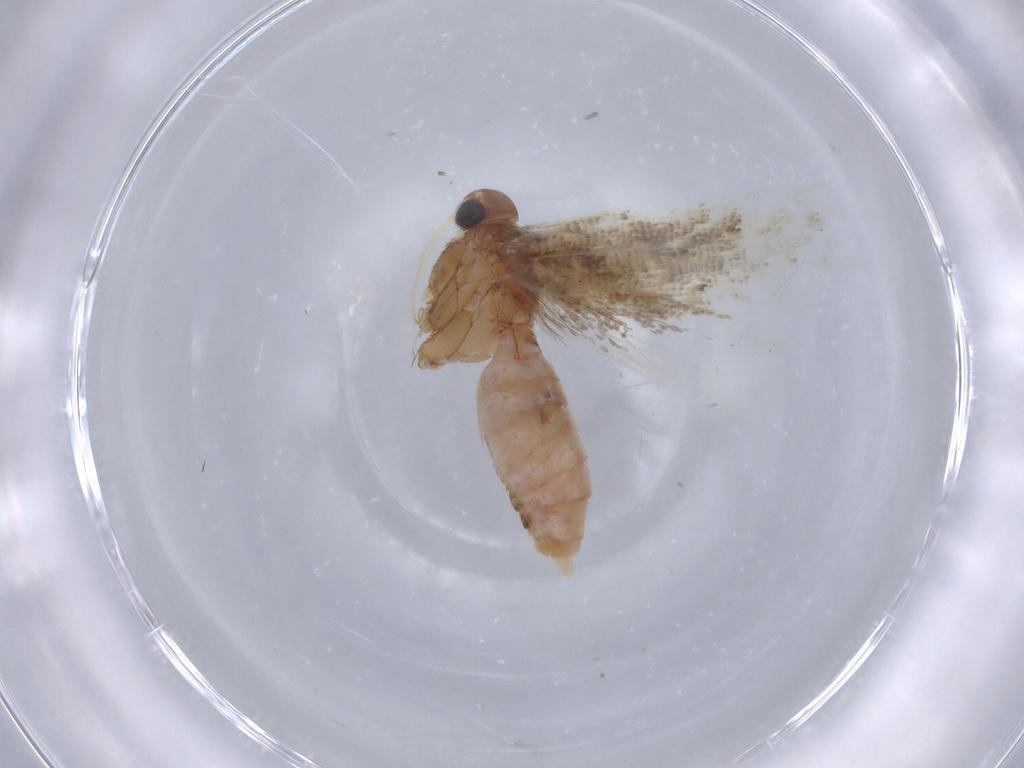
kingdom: Animalia
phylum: Arthropoda
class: Insecta
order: Lepidoptera
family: Gelechiidae
